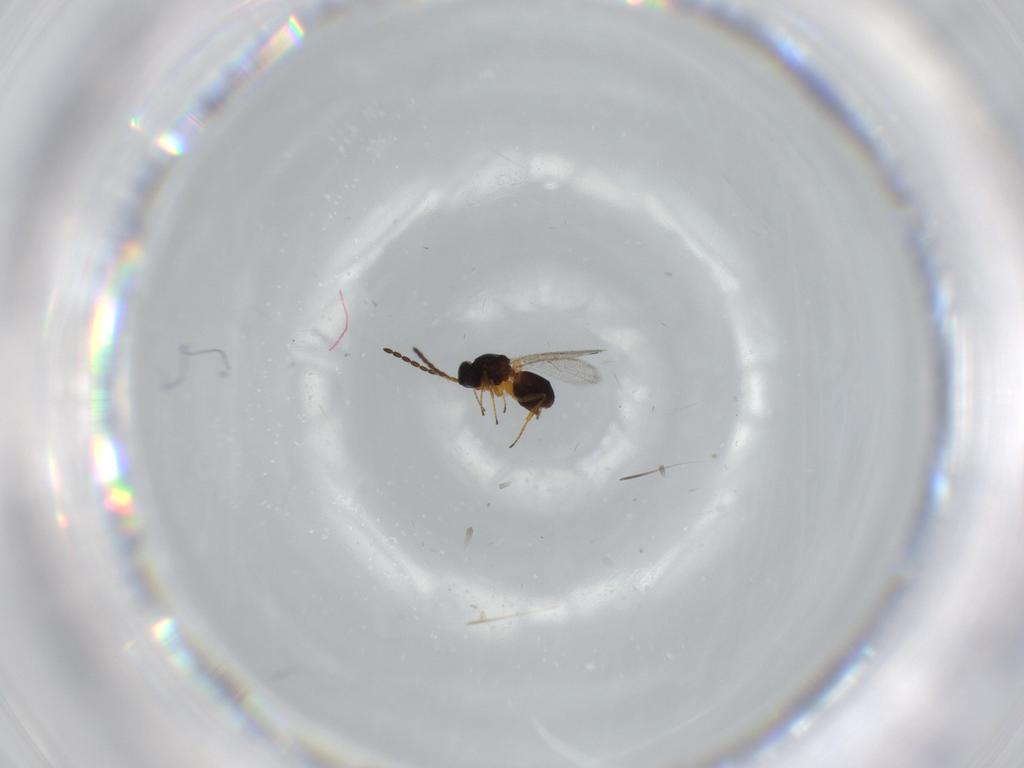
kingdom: Animalia
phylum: Arthropoda
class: Insecta
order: Hymenoptera
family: Figitidae
